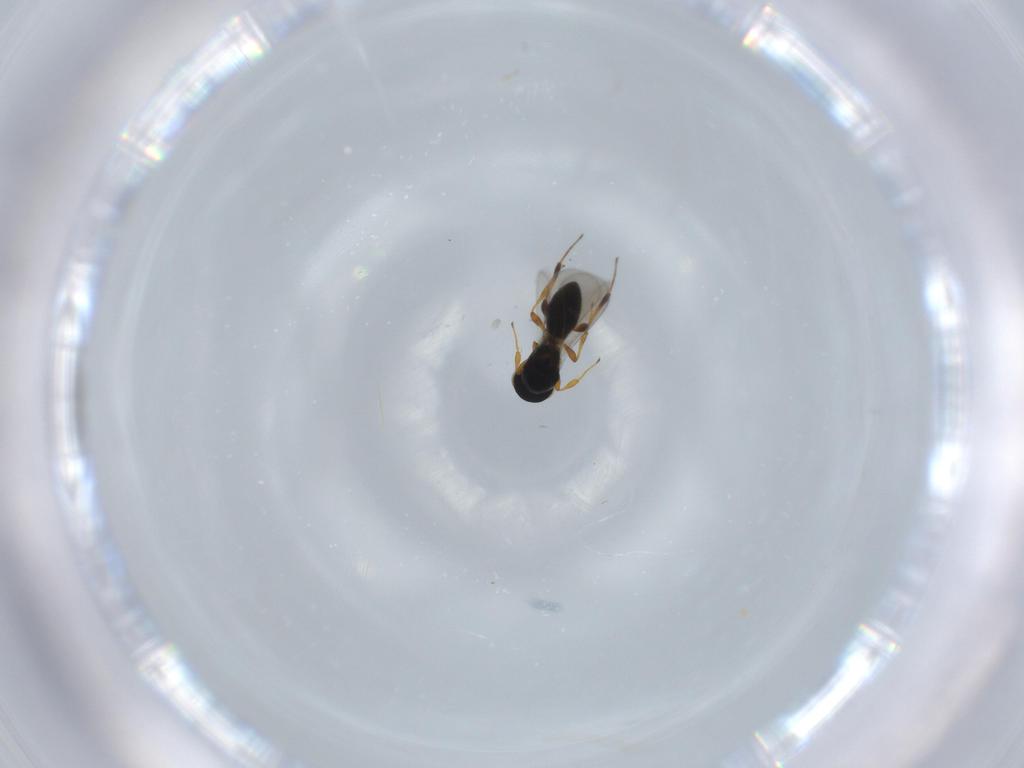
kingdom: Animalia
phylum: Arthropoda
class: Insecta
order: Hymenoptera
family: Platygastridae
